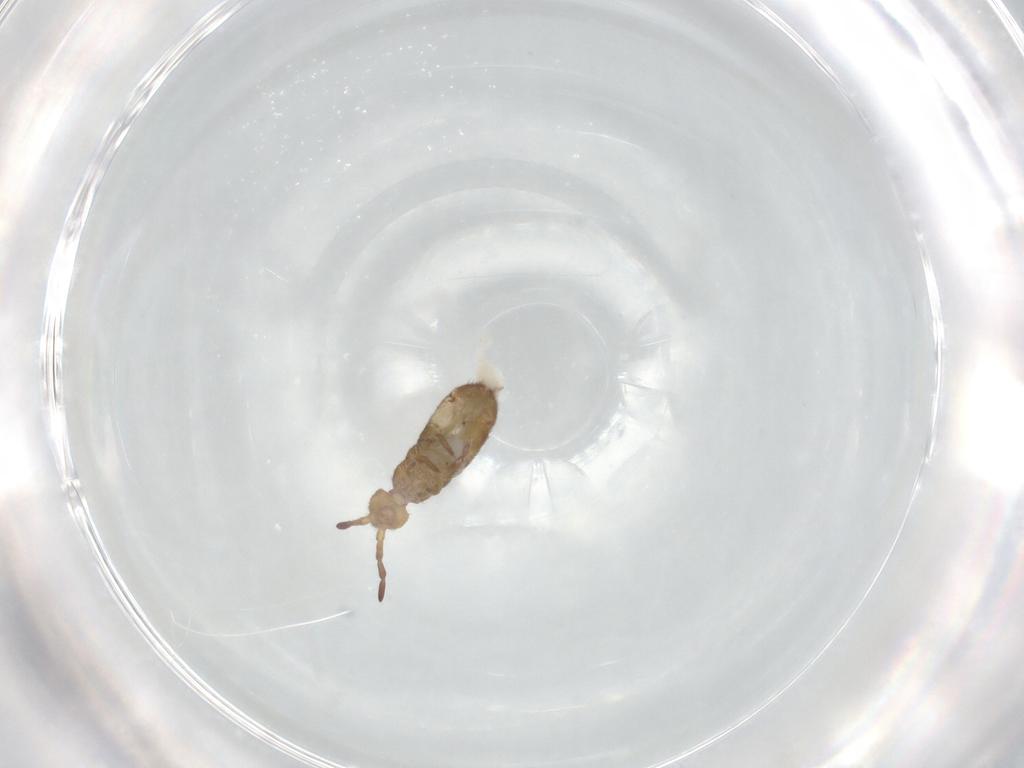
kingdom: Animalia
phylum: Arthropoda
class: Collembola
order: Entomobryomorpha
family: Isotomidae
